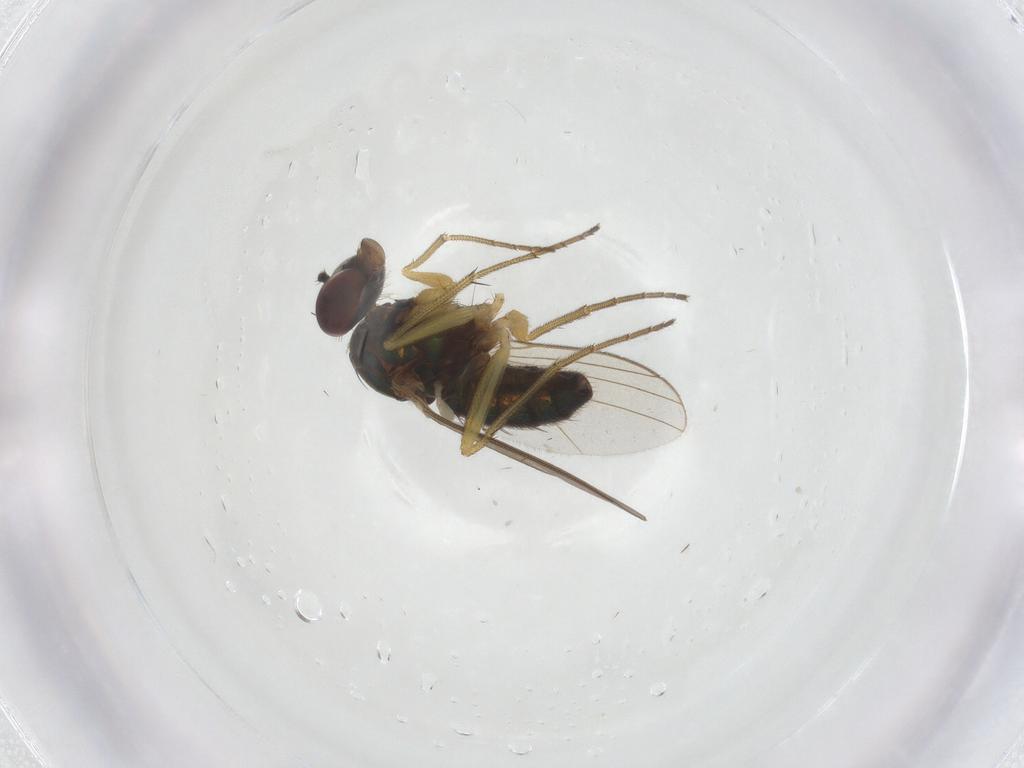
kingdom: Animalia
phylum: Arthropoda
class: Insecta
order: Diptera
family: Dolichopodidae
